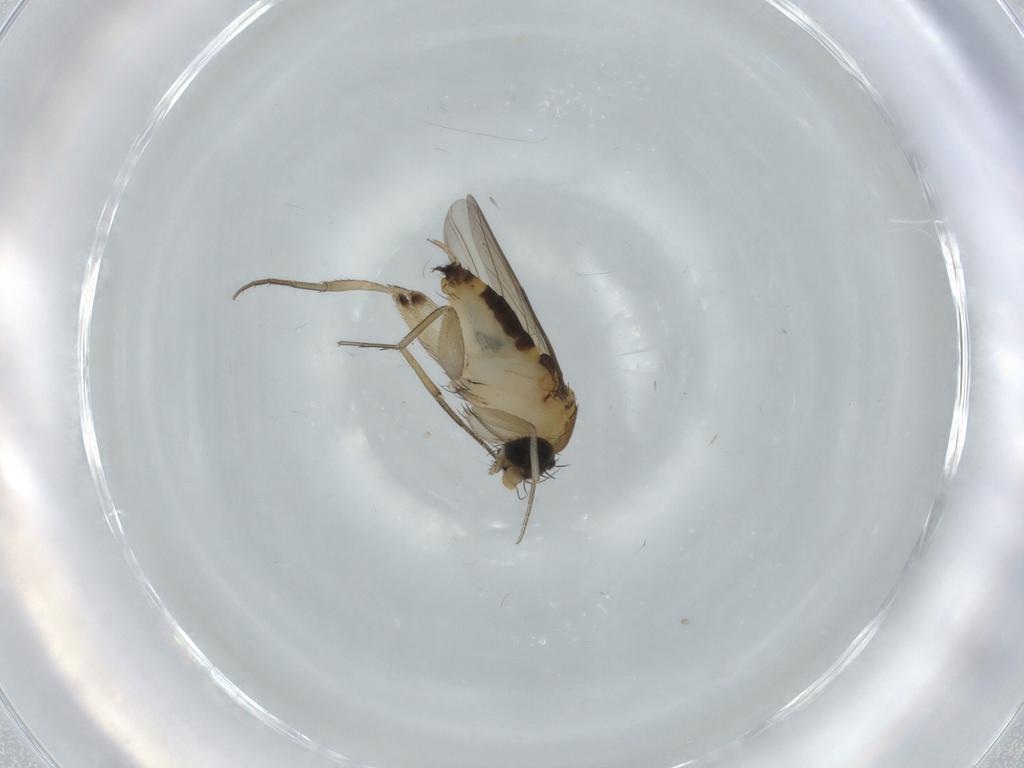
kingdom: Animalia
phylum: Arthropoda
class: Insecta
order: Diptera
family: Phoridae
